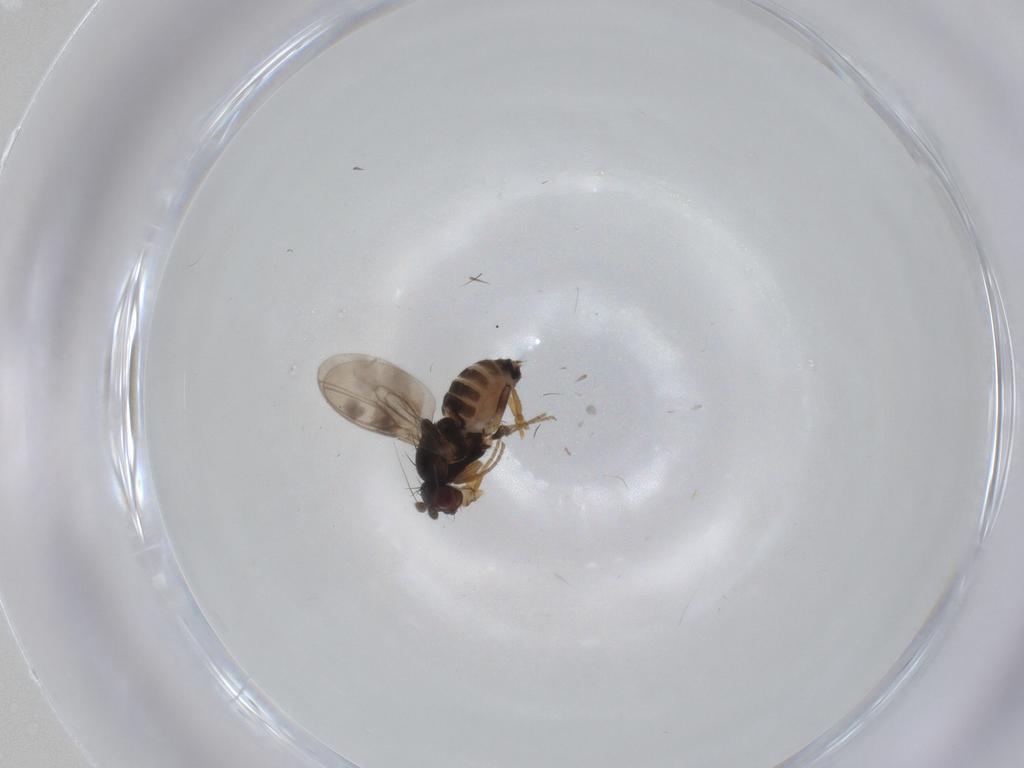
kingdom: Animalia
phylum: Arthropoda
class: Insecta
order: Diptera
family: Sphaeroceridae
